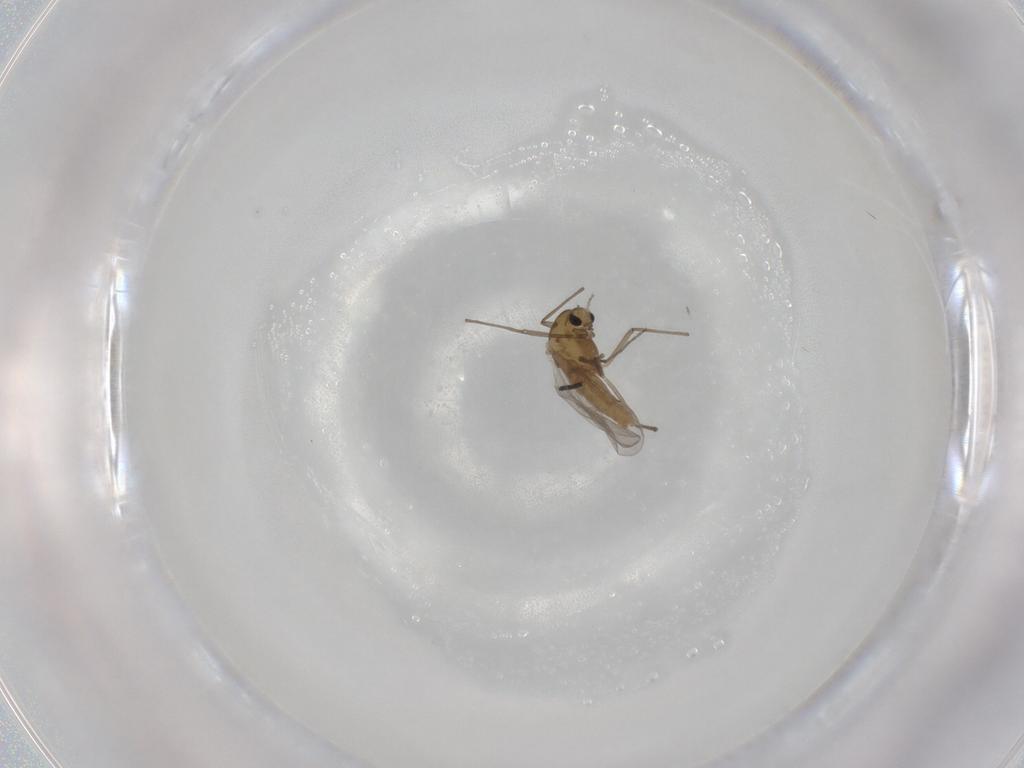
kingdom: Animalia
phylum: Arthropoda
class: Insecta
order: Diptera
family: Chironomidae
